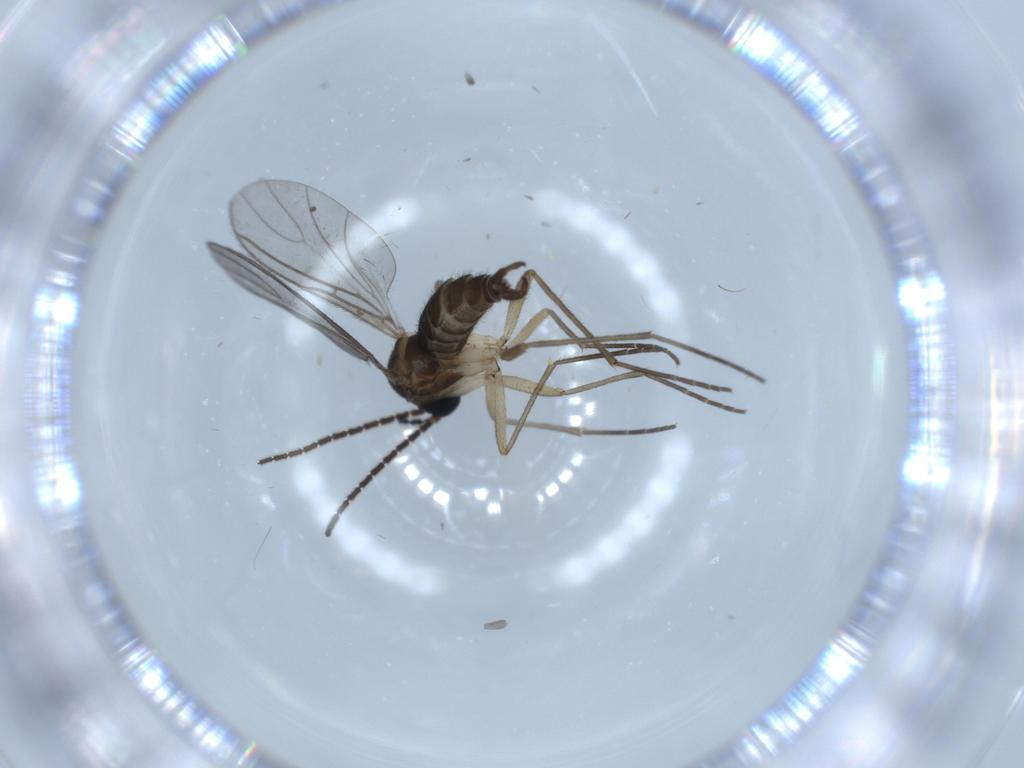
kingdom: Animalia
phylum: Arthropoda
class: Insecta
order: Diptera
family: Sciaridae
